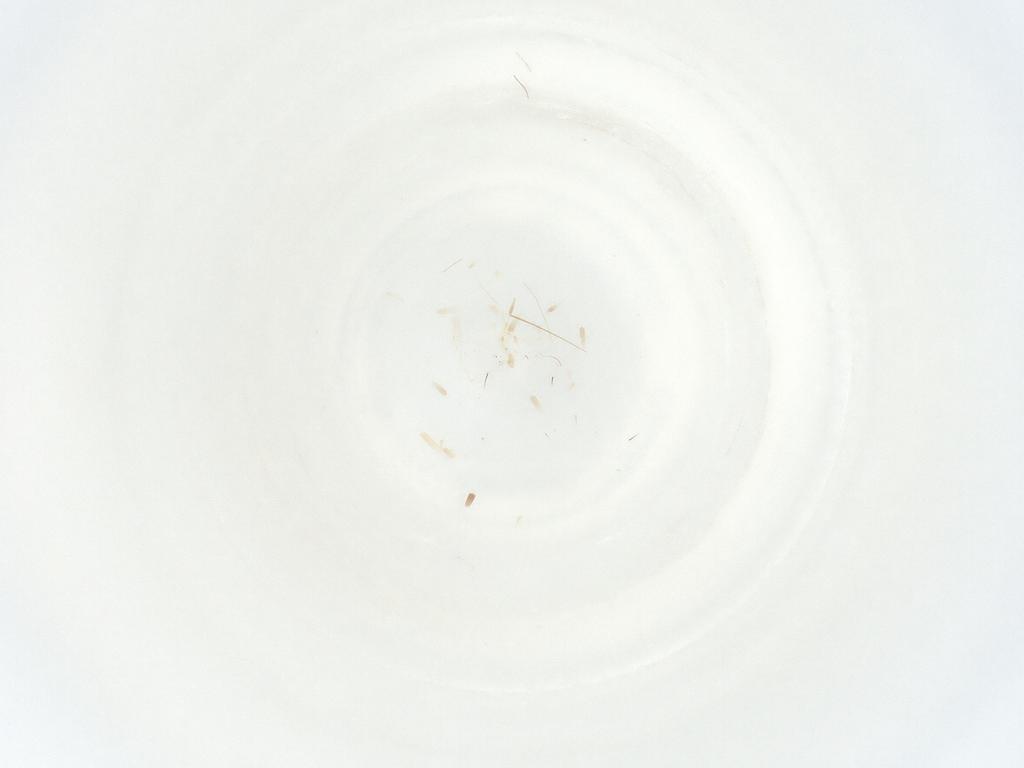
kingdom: Animalia
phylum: Arthropoda
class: Insecta
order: Hemiptera
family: Cicadellidae
